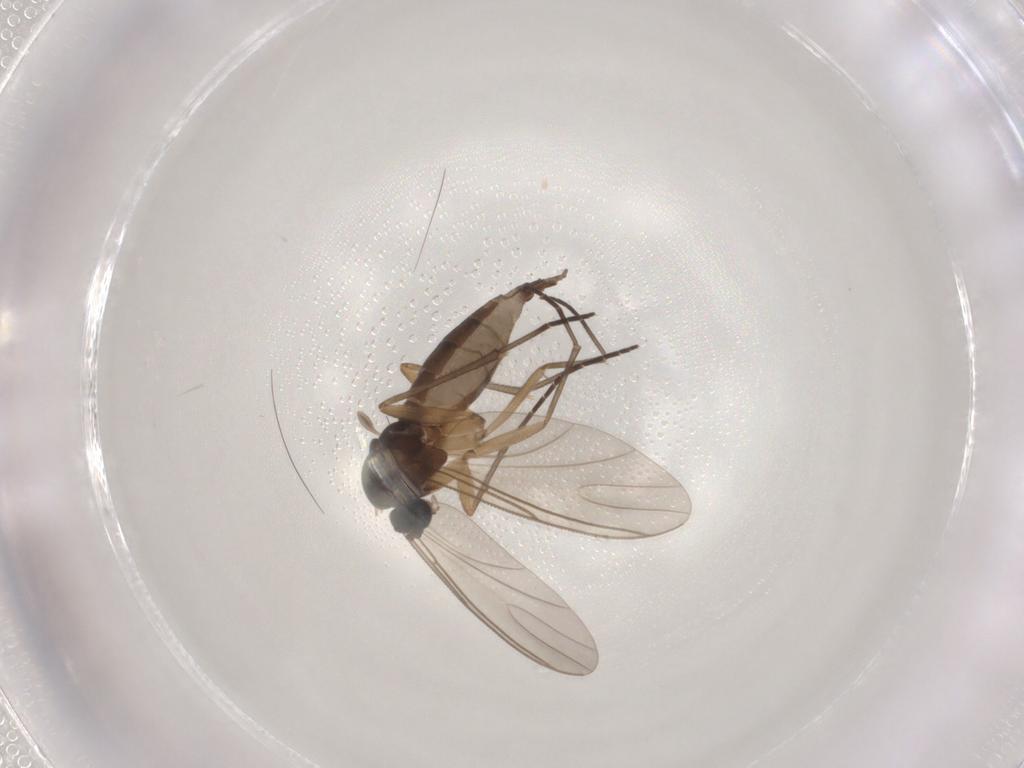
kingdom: Animalia
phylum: Arthropoda
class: Insecta
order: Diptera
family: Sciaridae
